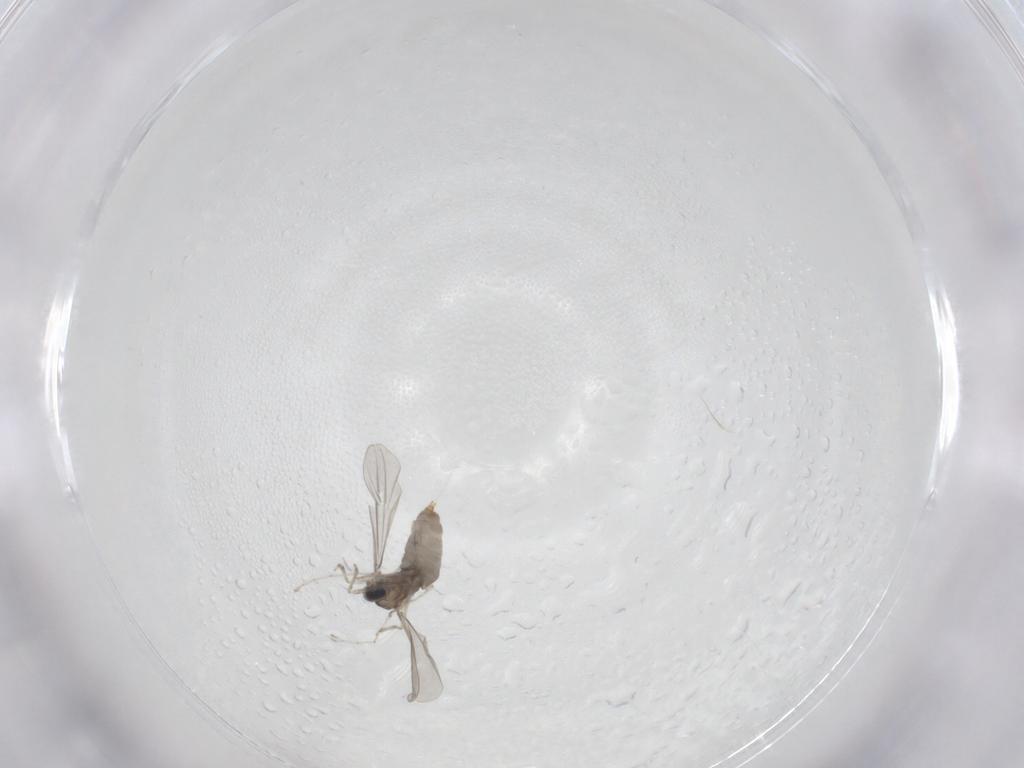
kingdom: Animalia
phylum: Arthropoda
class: Insecta
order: Diptera
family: Cecidomyiidae
